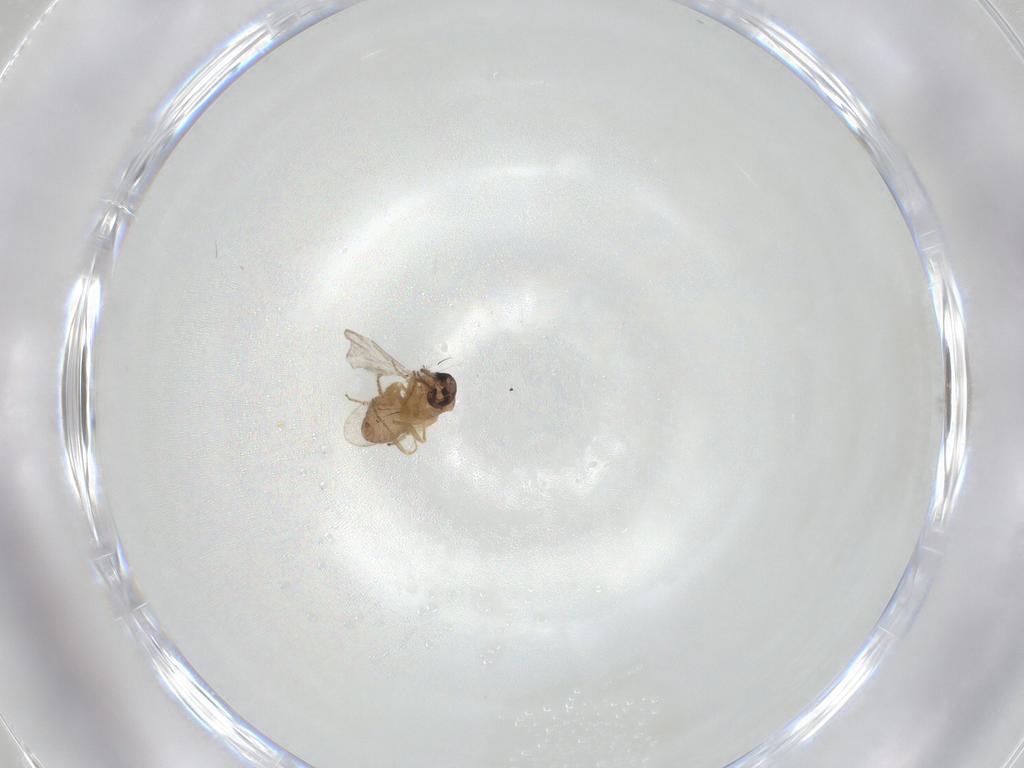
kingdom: Animalia
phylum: Arthropoda
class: Insecta
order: Diptera
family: Ceratopogonidae
